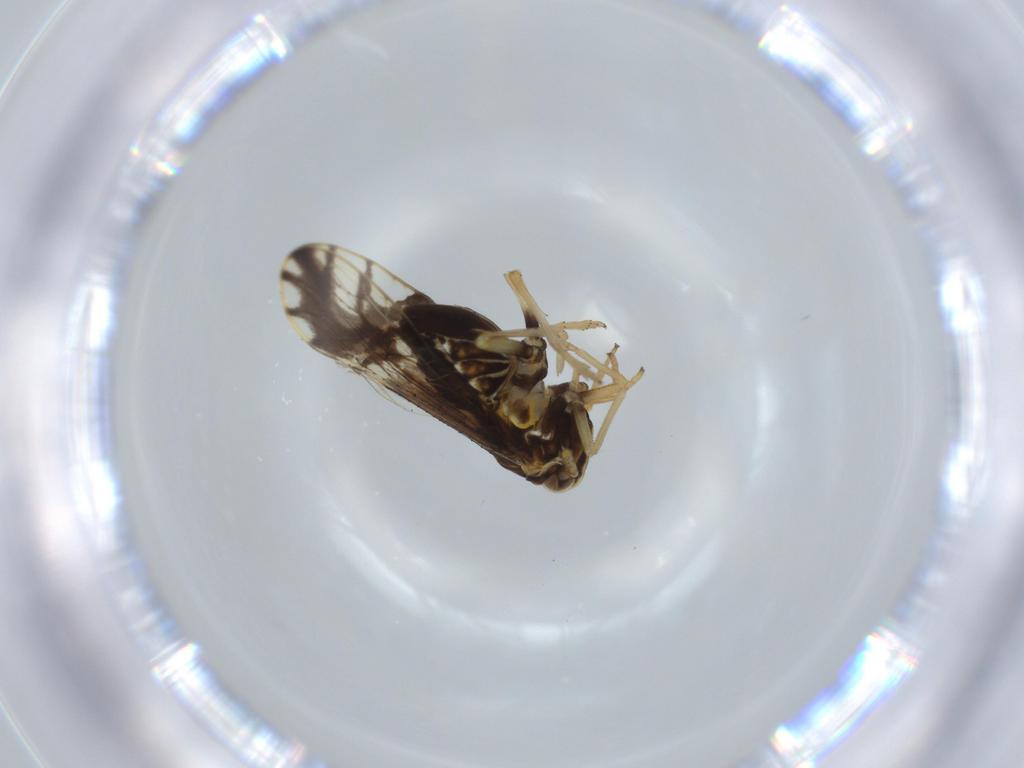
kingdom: Animalia
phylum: Arthropoda
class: Insecta
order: Hemiptera
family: Delphacidae
